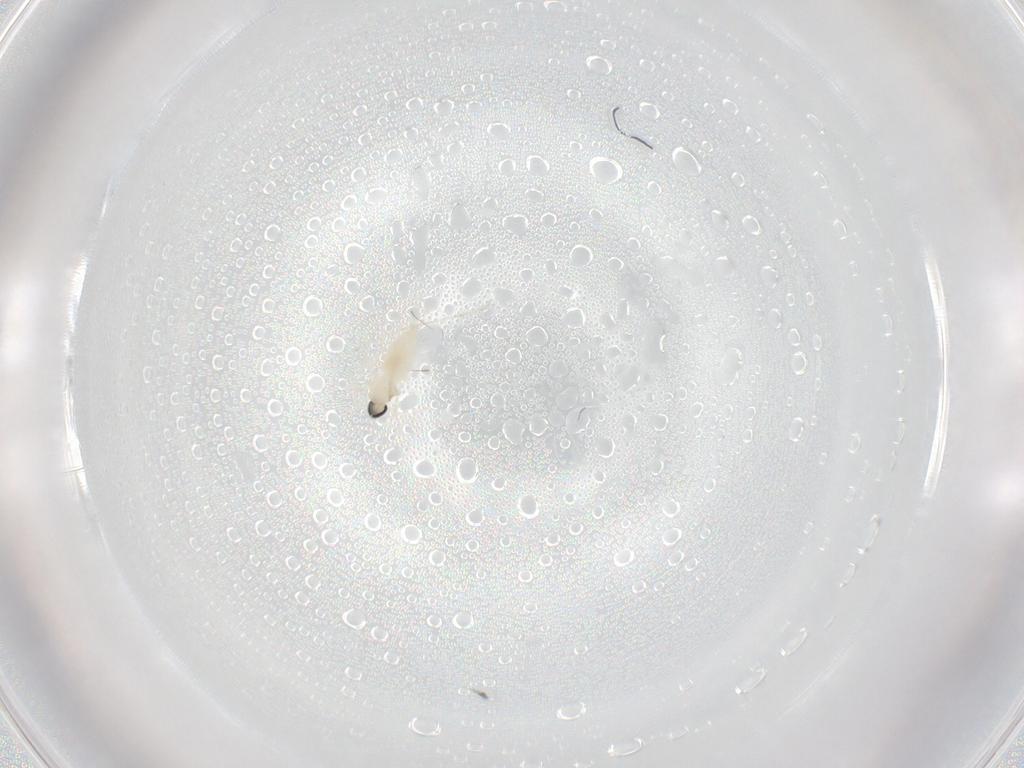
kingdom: Animalia
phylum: Arthropoda
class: Insecta
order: Diptera
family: Cecidomyiidae
